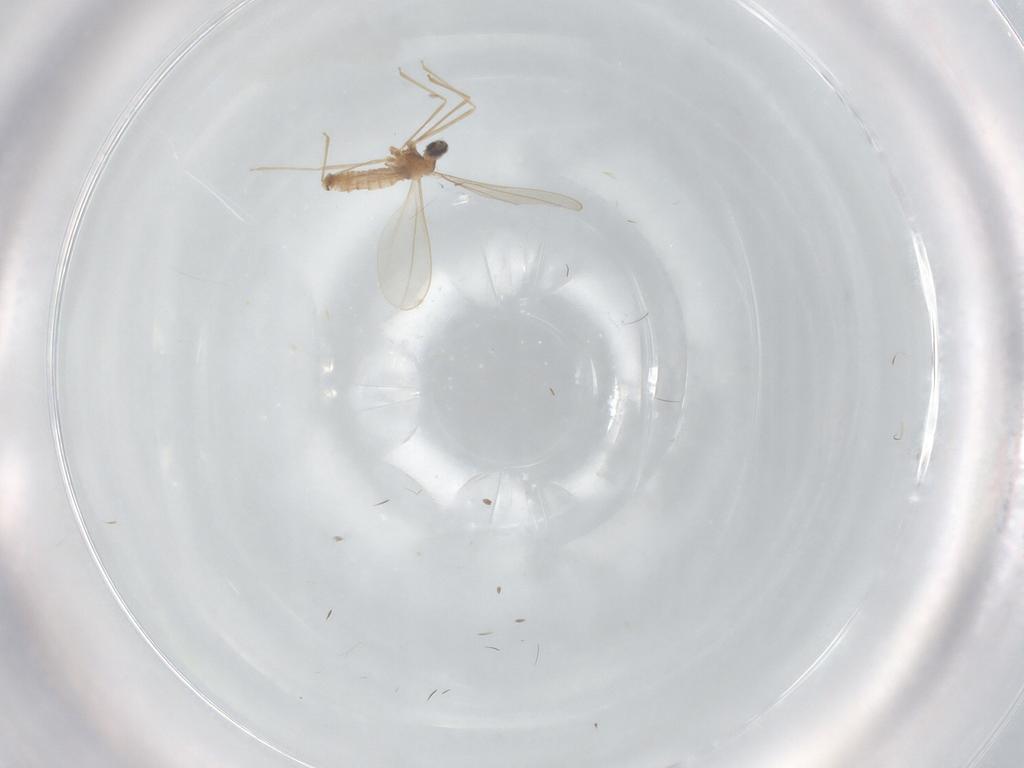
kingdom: Animalia
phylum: Arthropoda
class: Insecta
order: Diptera
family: Cecidomyiidae
